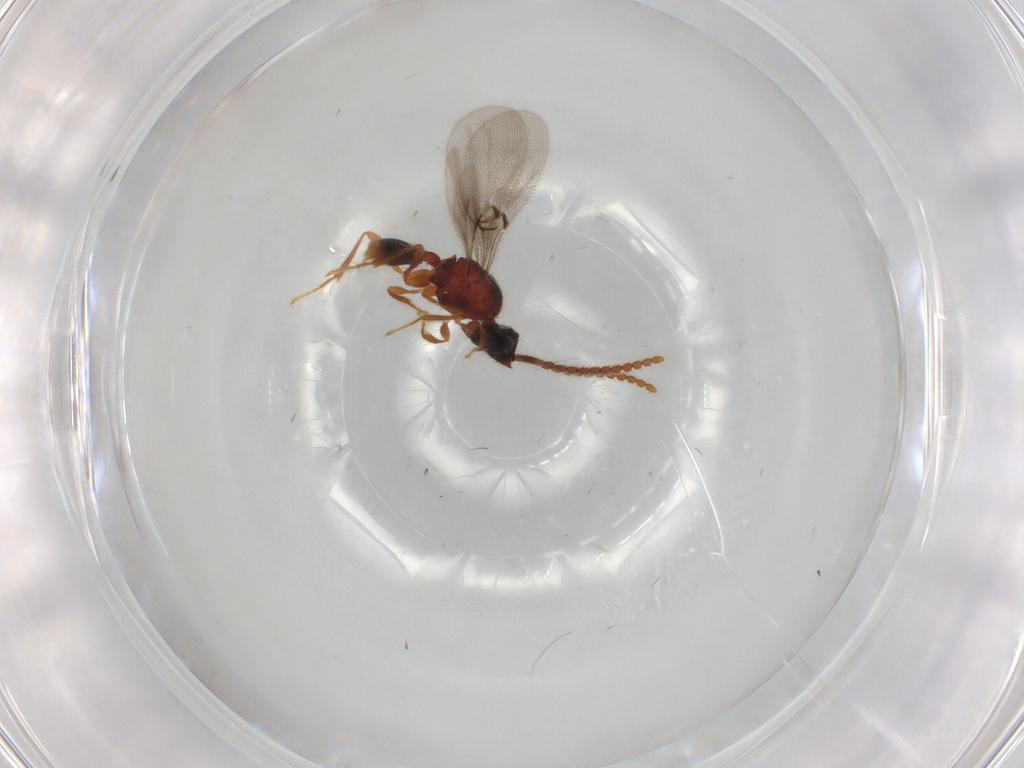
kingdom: Animalia
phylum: Arthropoda
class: Insecta
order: Hymenoptera
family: Diapriidae
